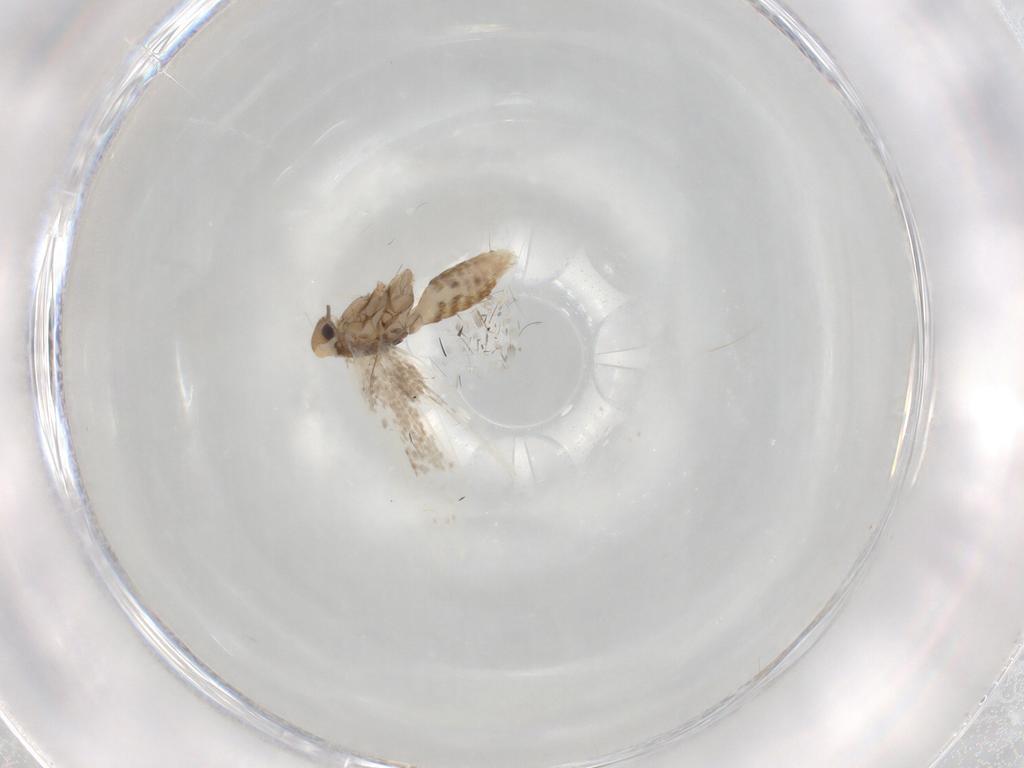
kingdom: Animalia
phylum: Arthropoda
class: Insecta
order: Lepidoptera
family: Lyonetiidae
